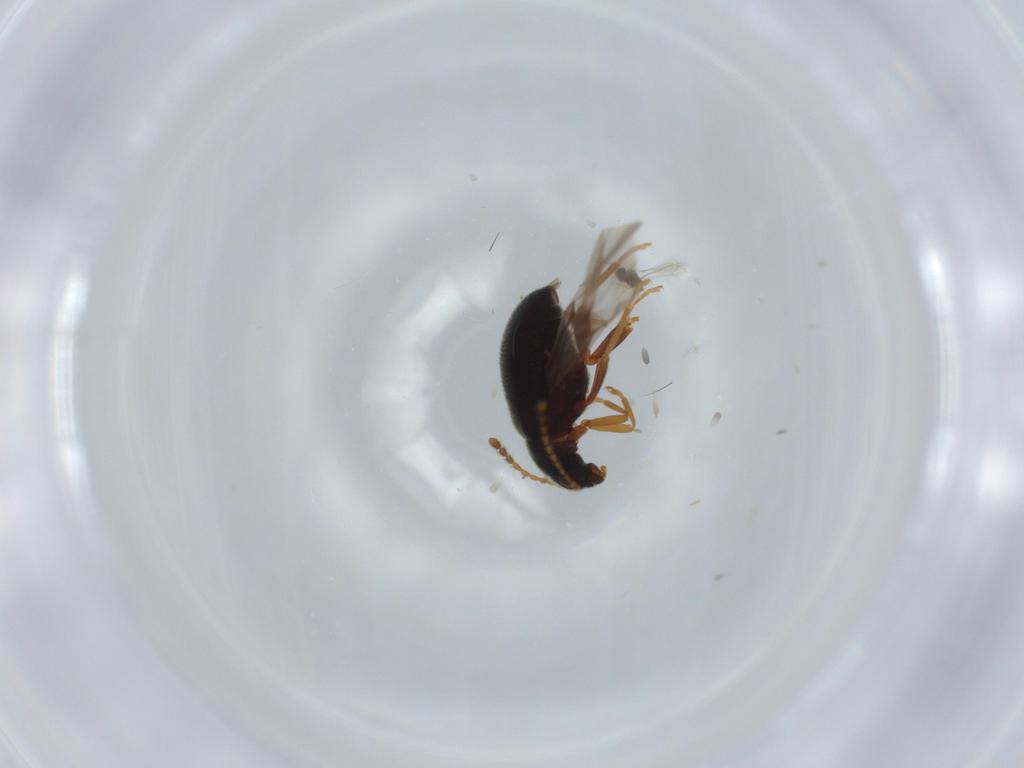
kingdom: Animalia
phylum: Arthropoda
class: Insecta
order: Coleoptera
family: Aderidae
